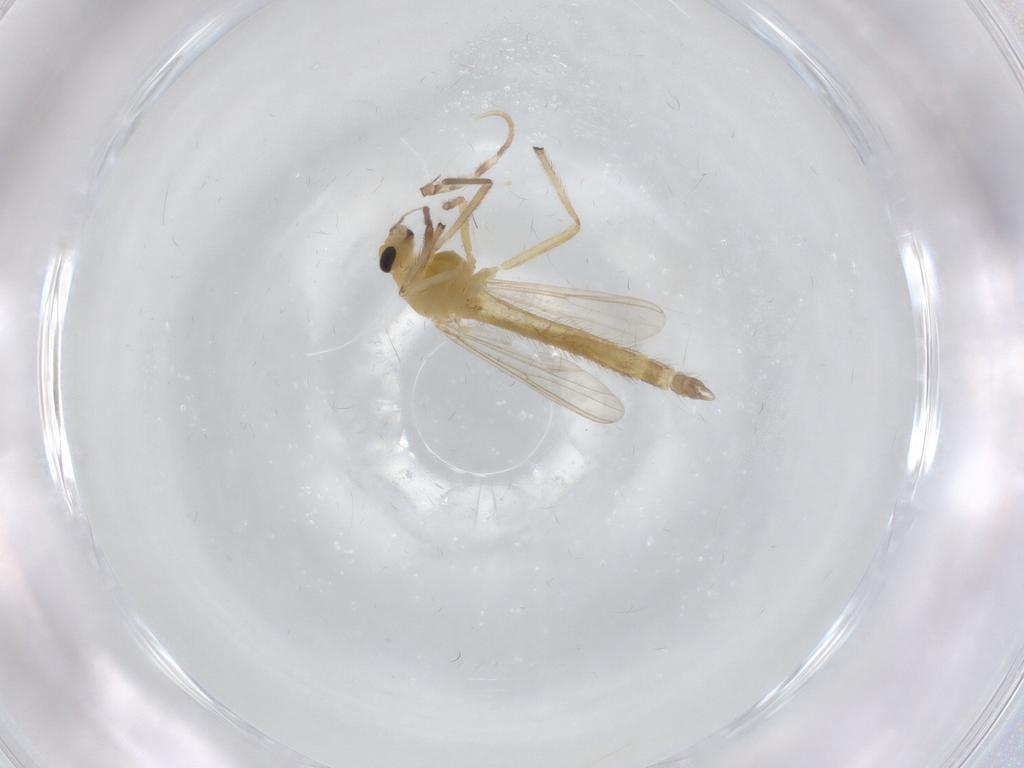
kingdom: Animalia
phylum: Arthropoda
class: Insecta
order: Diptera
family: Chironomidae
